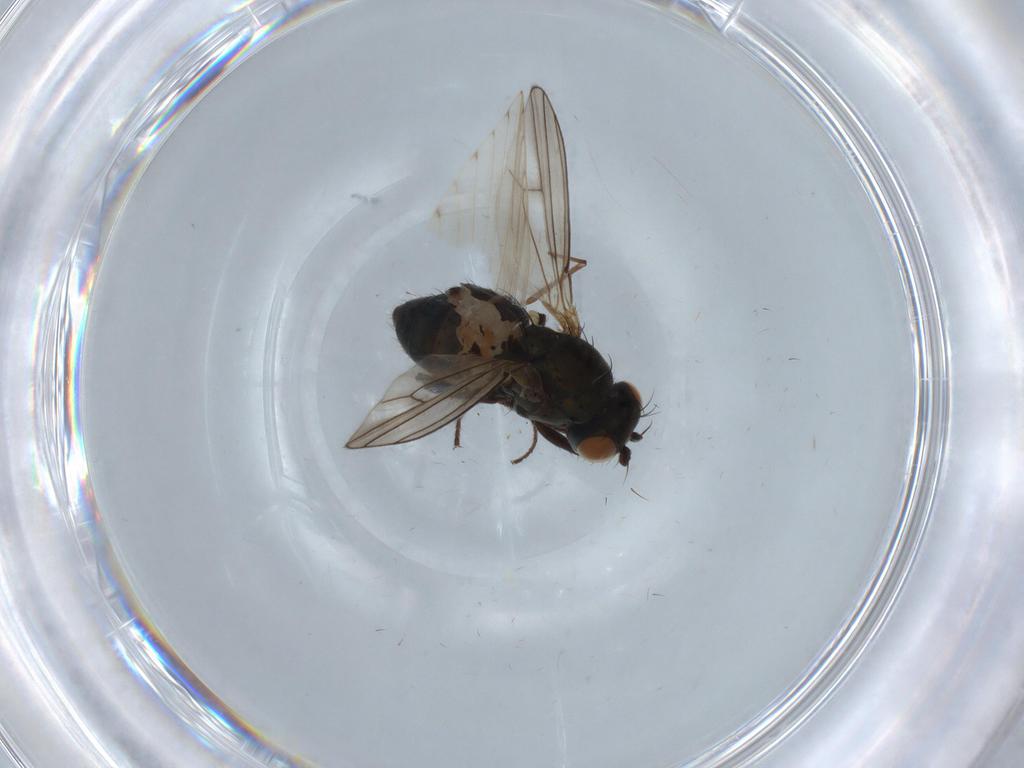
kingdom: Animalia
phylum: Arthropoda
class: Insecta
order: Diptera
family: Ephydridae
